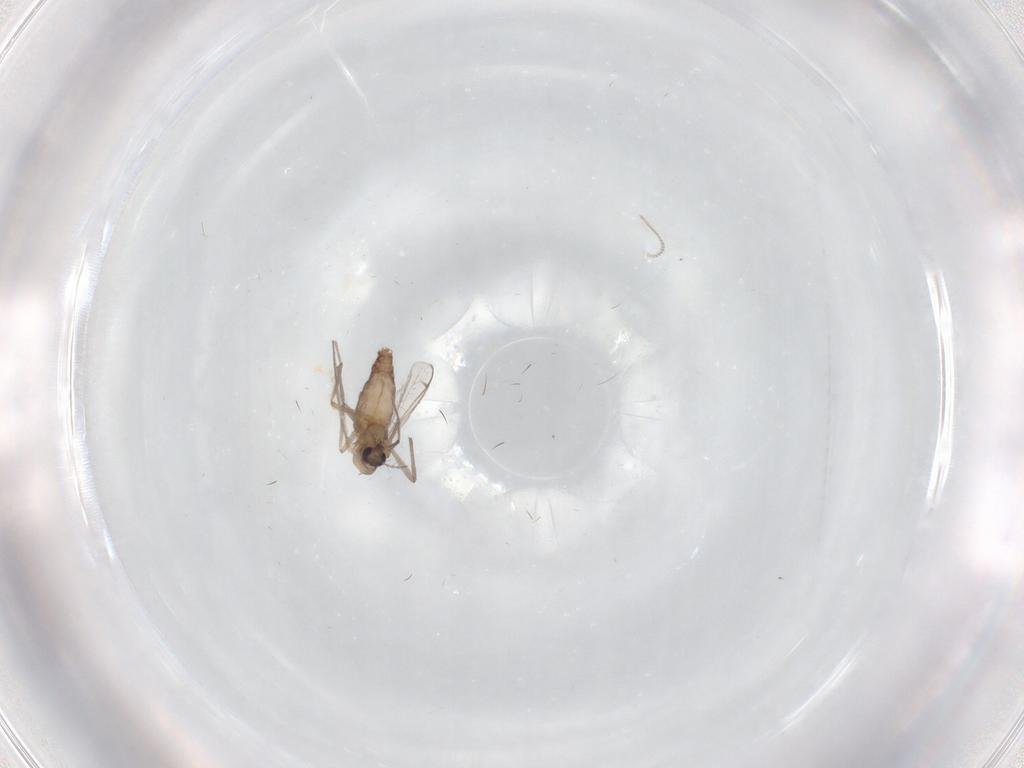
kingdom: Animalia
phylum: Arthropoda
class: Insecta
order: Diptera
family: Chironomidae
